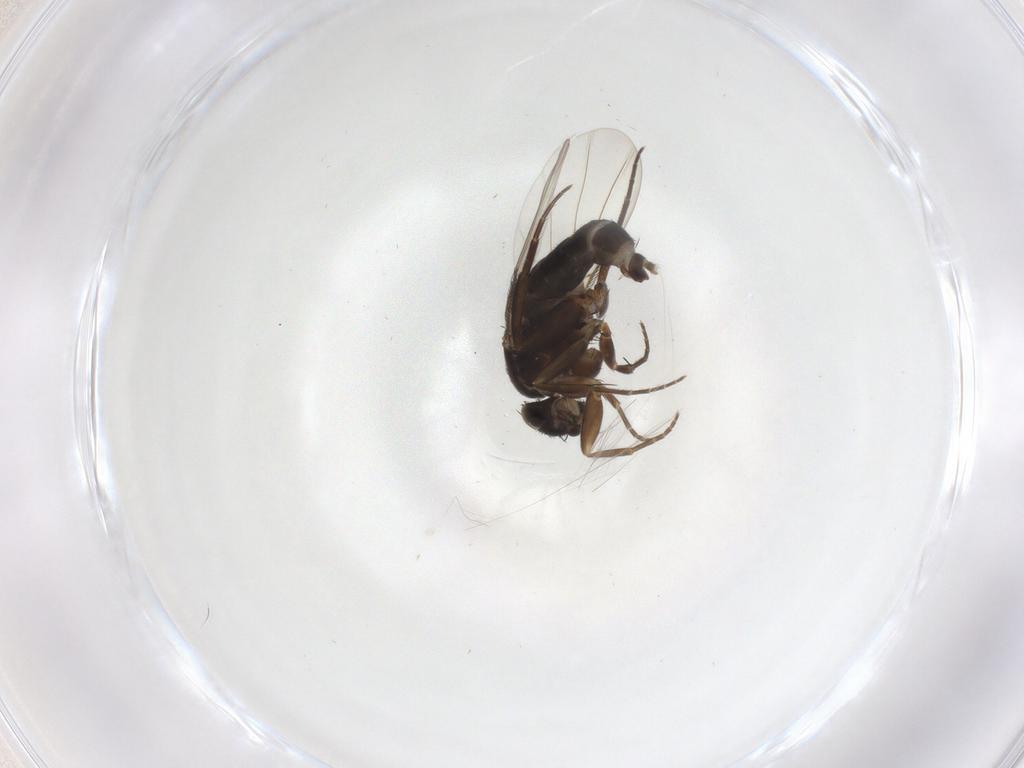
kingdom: Animalia
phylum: Arthropoda
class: Insecta
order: Diptera
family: Phoridae
